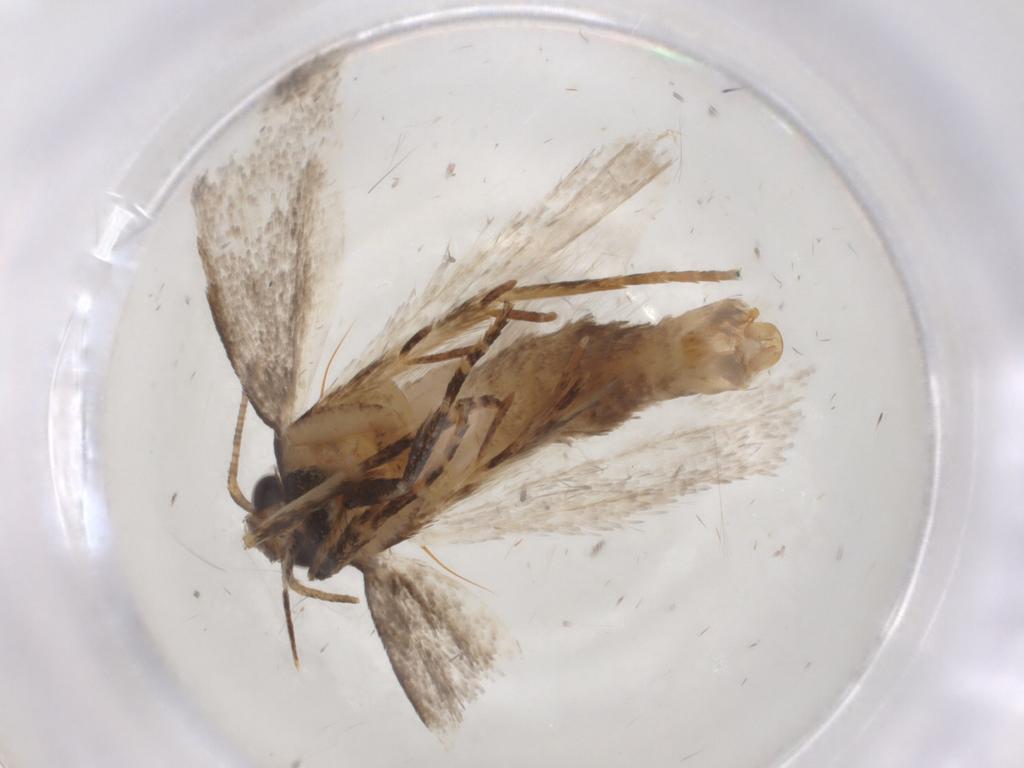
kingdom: Animalia
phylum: Arthropoda
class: Insecta
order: Lepidoptera
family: Gelechiidae
